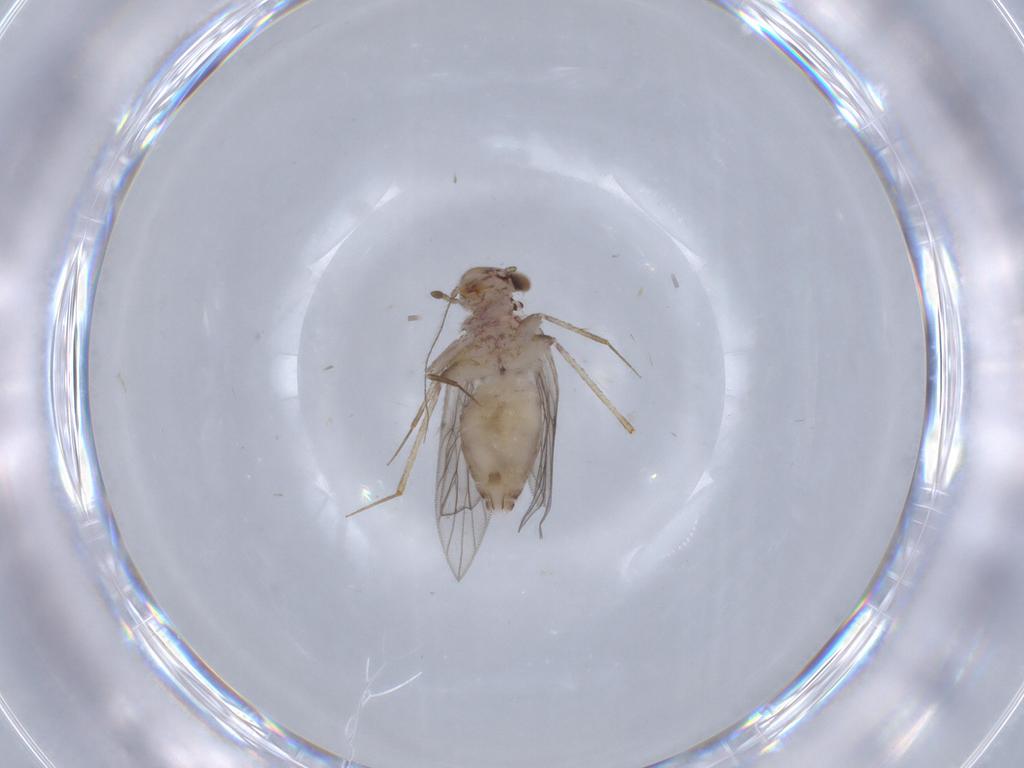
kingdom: Animalia
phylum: Arthropoda
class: Insecta
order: Psocodea
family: Lepidopsocidae
